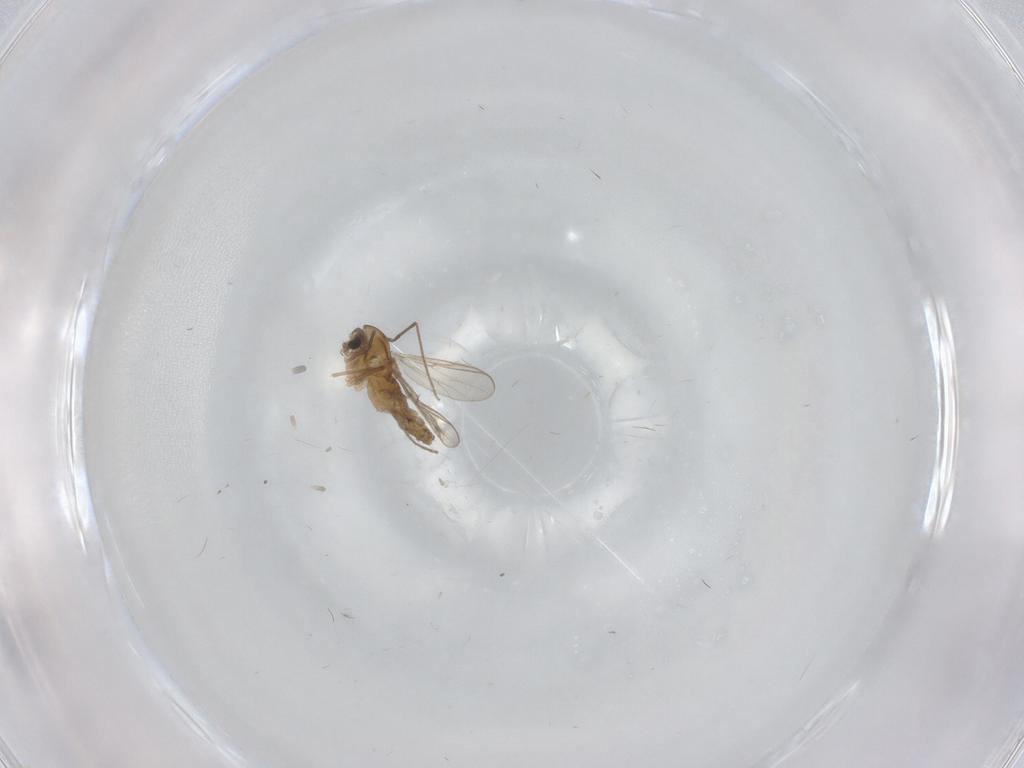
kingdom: Animalia
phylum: Arthropoda
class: Insecta
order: Diptera
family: Chironomidae
